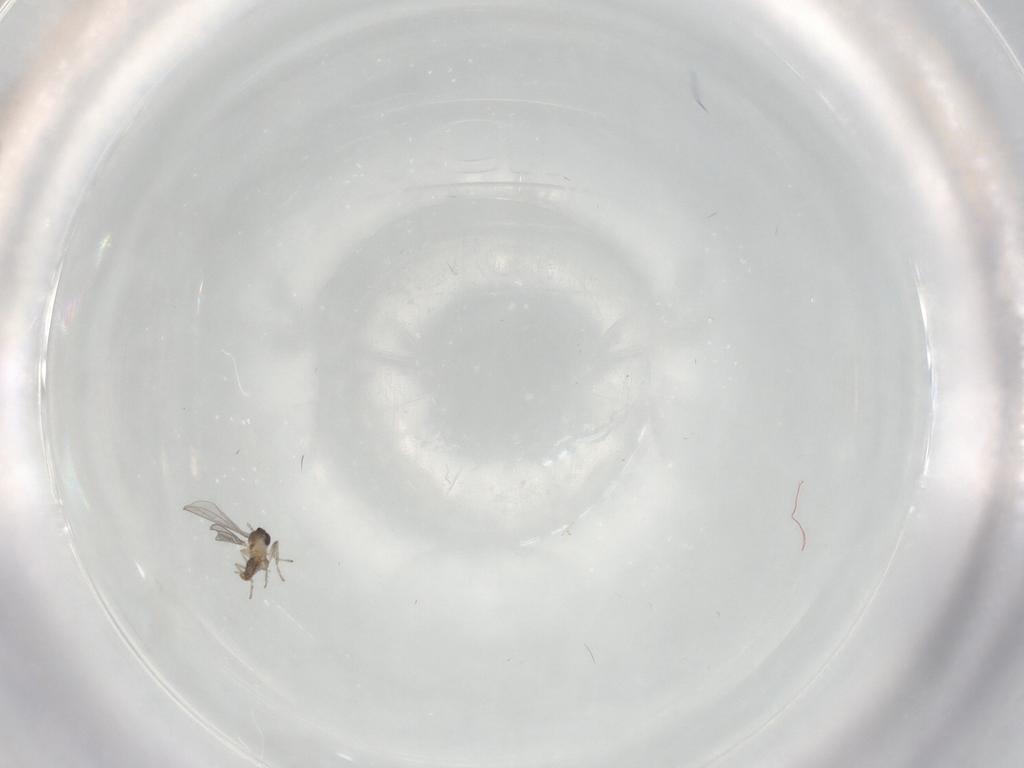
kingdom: Animalia
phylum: Arthropoda
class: Insecta
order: Diptera
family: Cecidomyiidae
